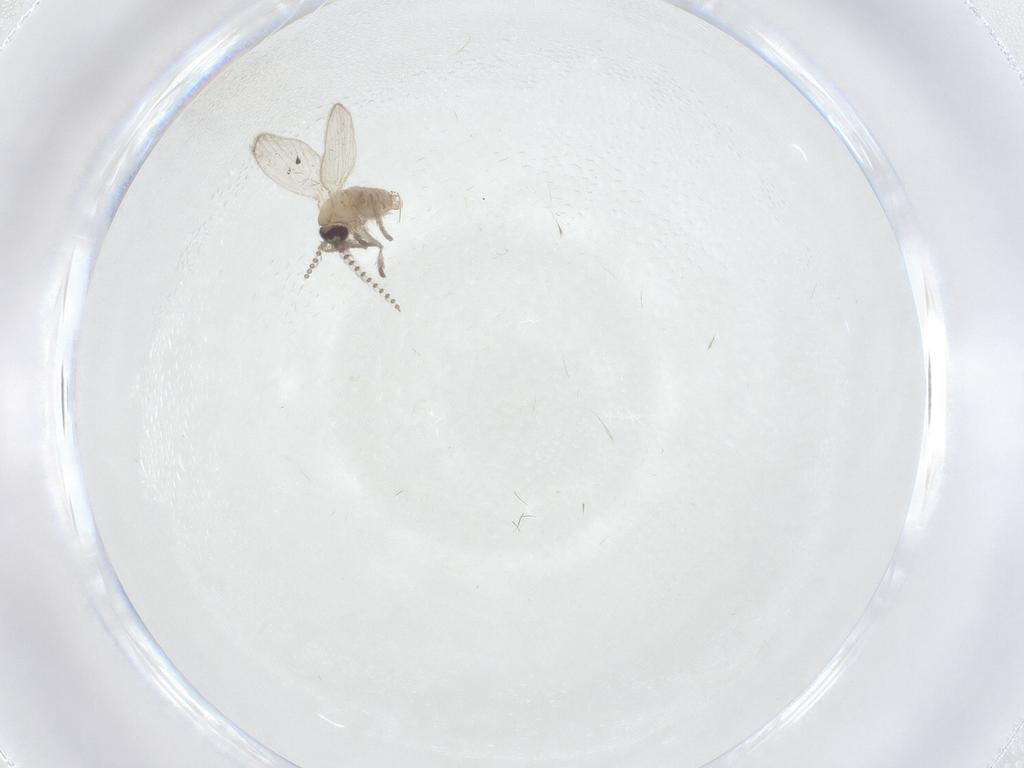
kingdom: Animalia
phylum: Arthropoda
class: Insecta
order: Diptera
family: Psychodidae
